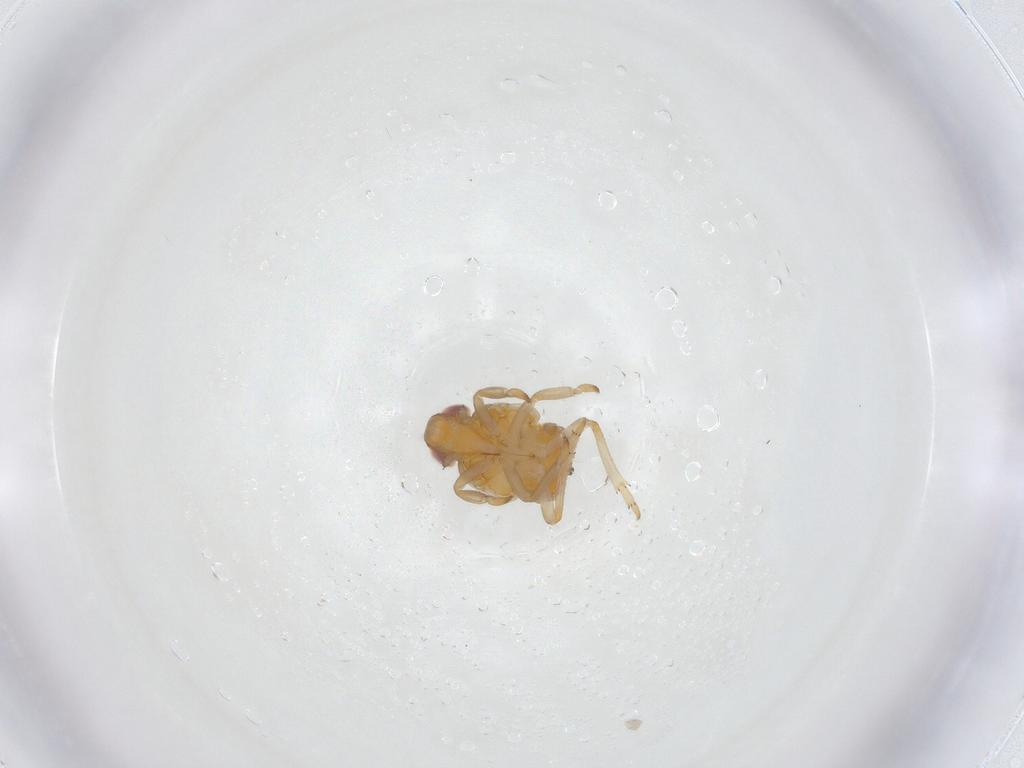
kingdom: Animalia
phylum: Arthropoda
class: Insecta
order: Hemiptera
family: Fulgoroidea_incertae_sedis
